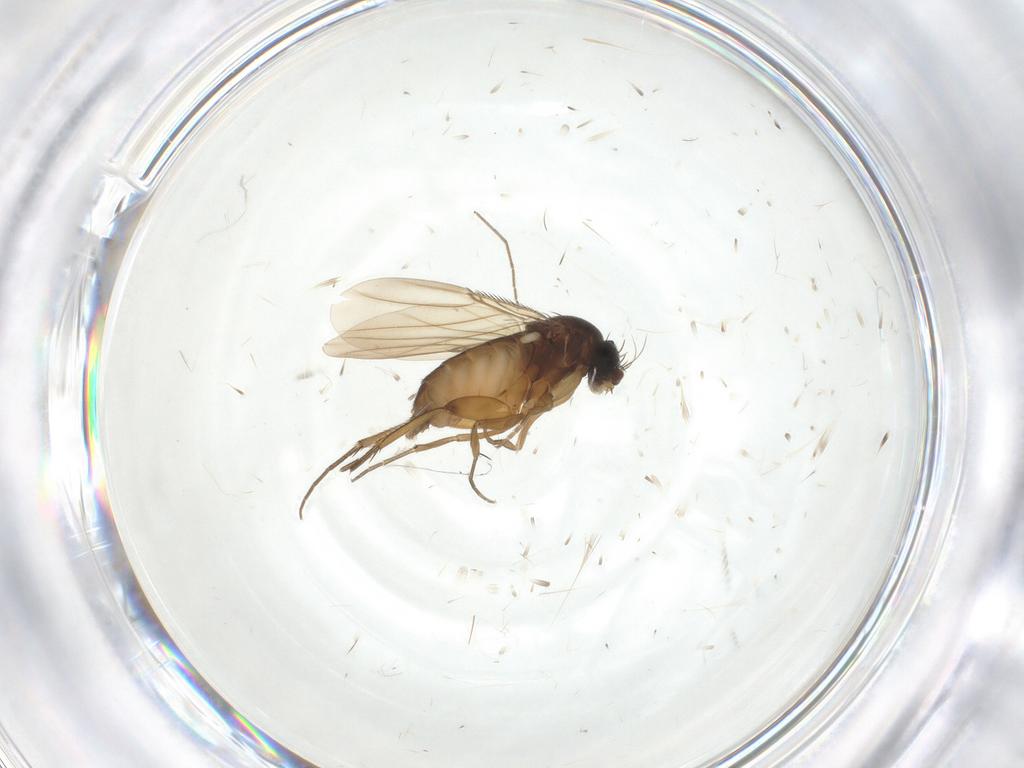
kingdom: Animalia
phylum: Arthropoda
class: Insecta
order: Diptera
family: Phoridae
